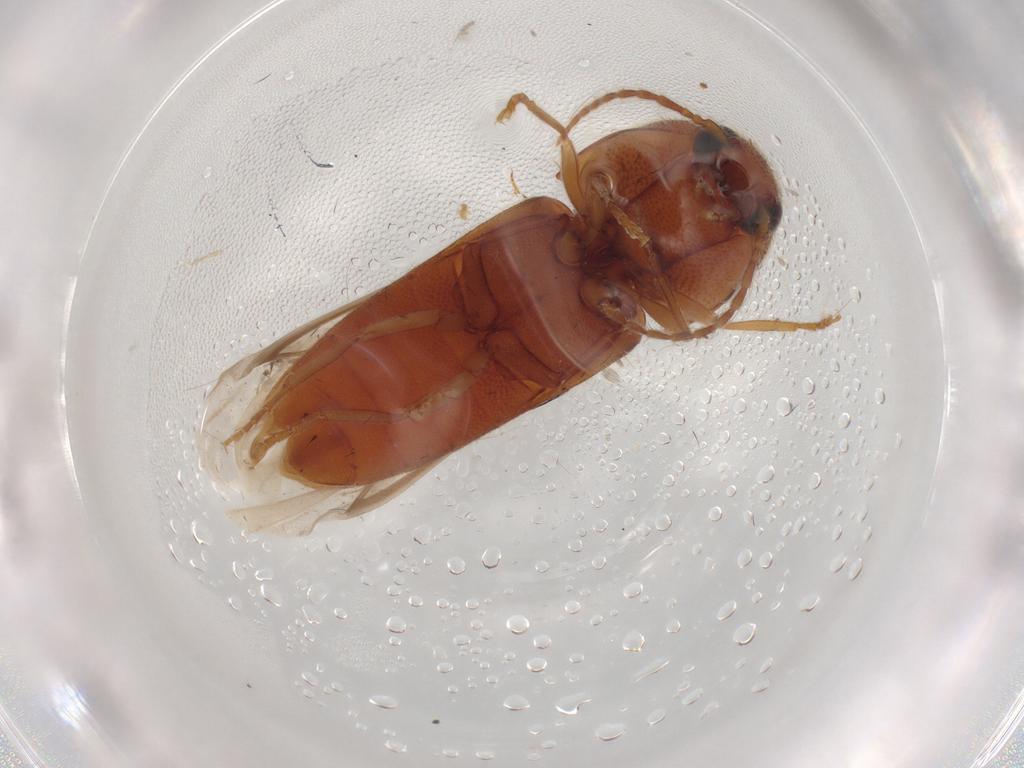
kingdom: Animalia
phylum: Arthropoda
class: Insecta
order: Coleoptera
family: Elateridae
